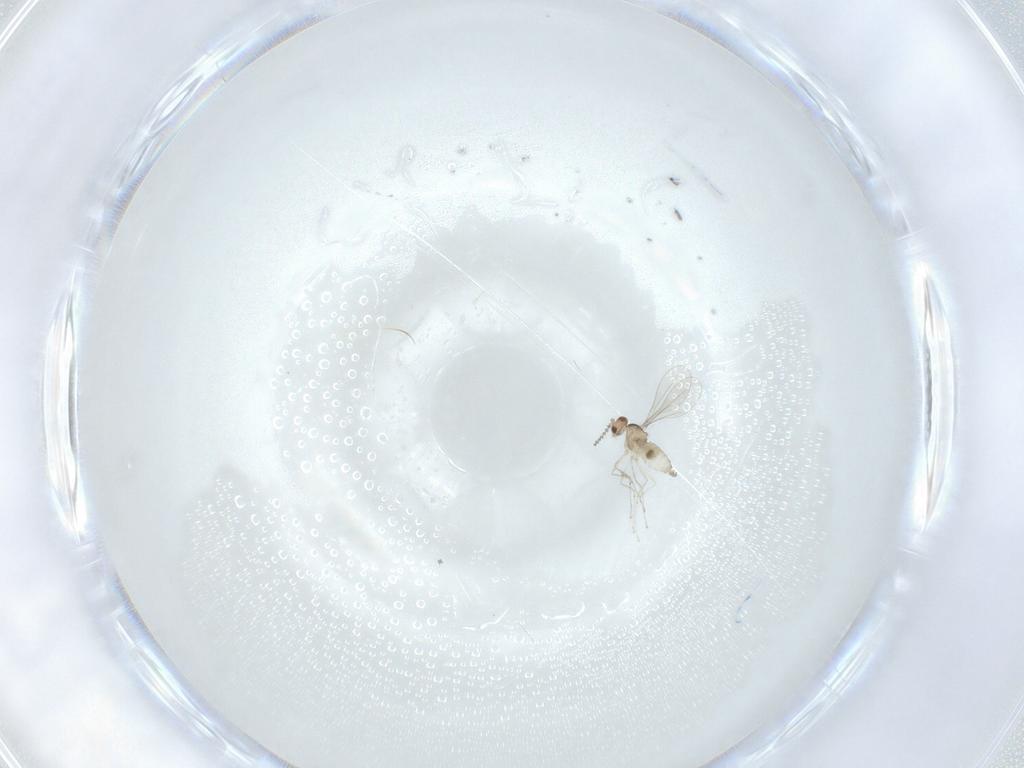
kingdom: Animalia
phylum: Arthropoda
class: Insecta
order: Diptera
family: Cecidomyiidae
